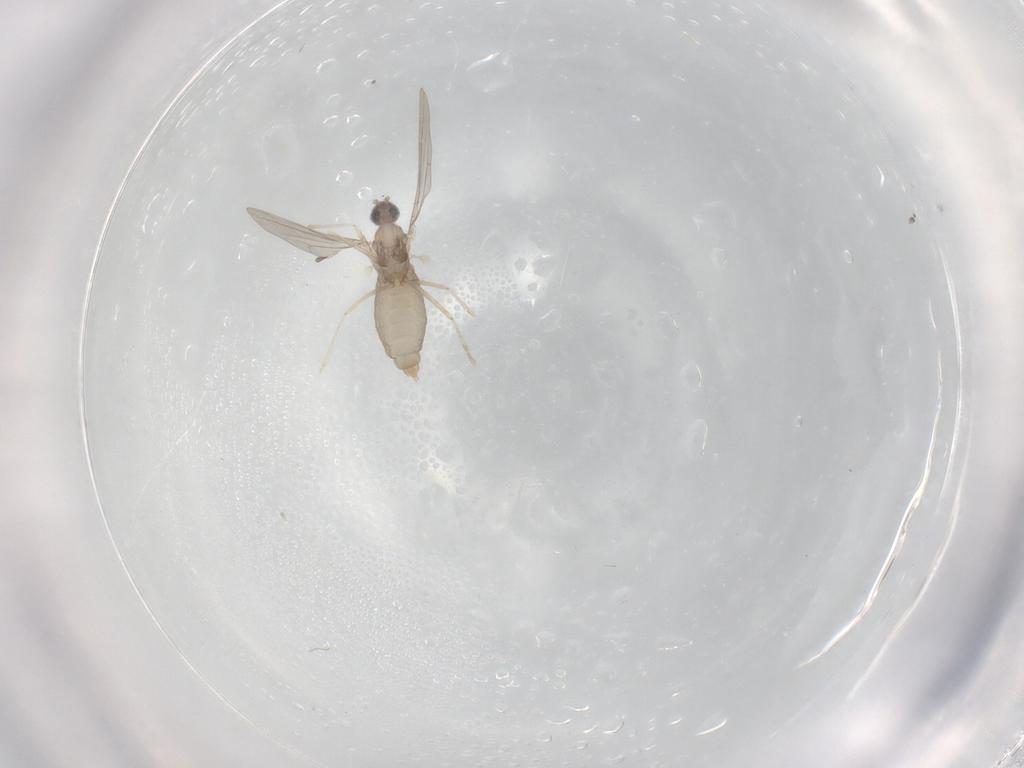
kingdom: Animalia
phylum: Arthropoda
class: Insecta
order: Diptera
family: Cecidomyiidae
